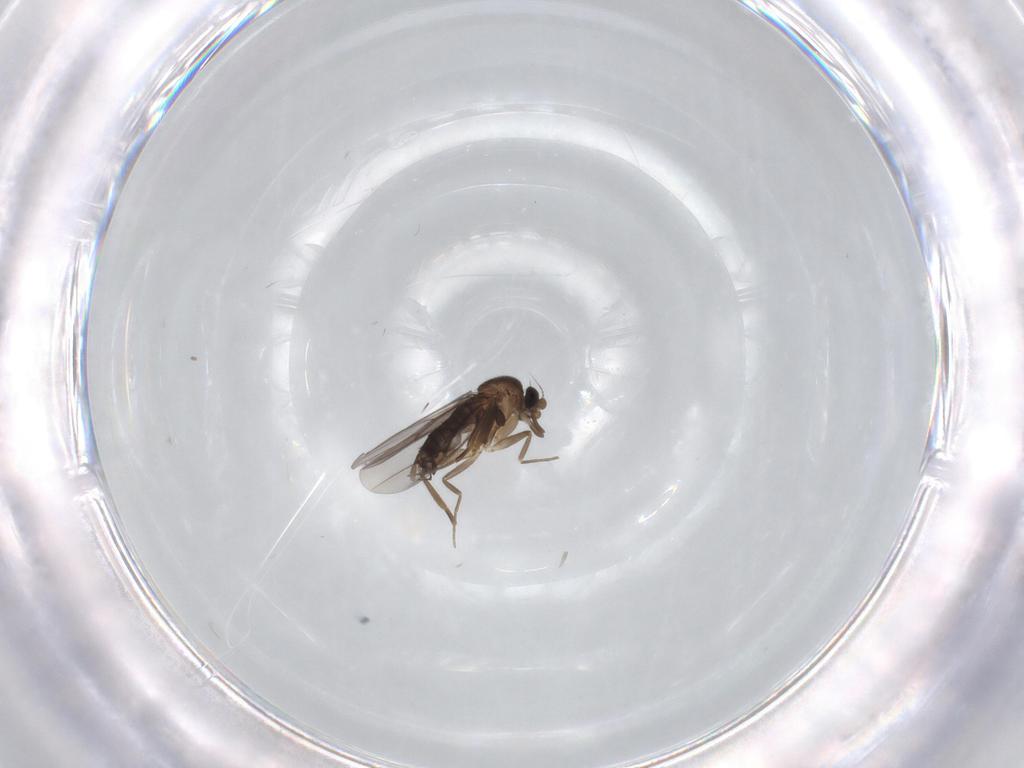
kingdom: Animalia
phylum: Arthropoda
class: Insecta
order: Diptera
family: Phoridae
